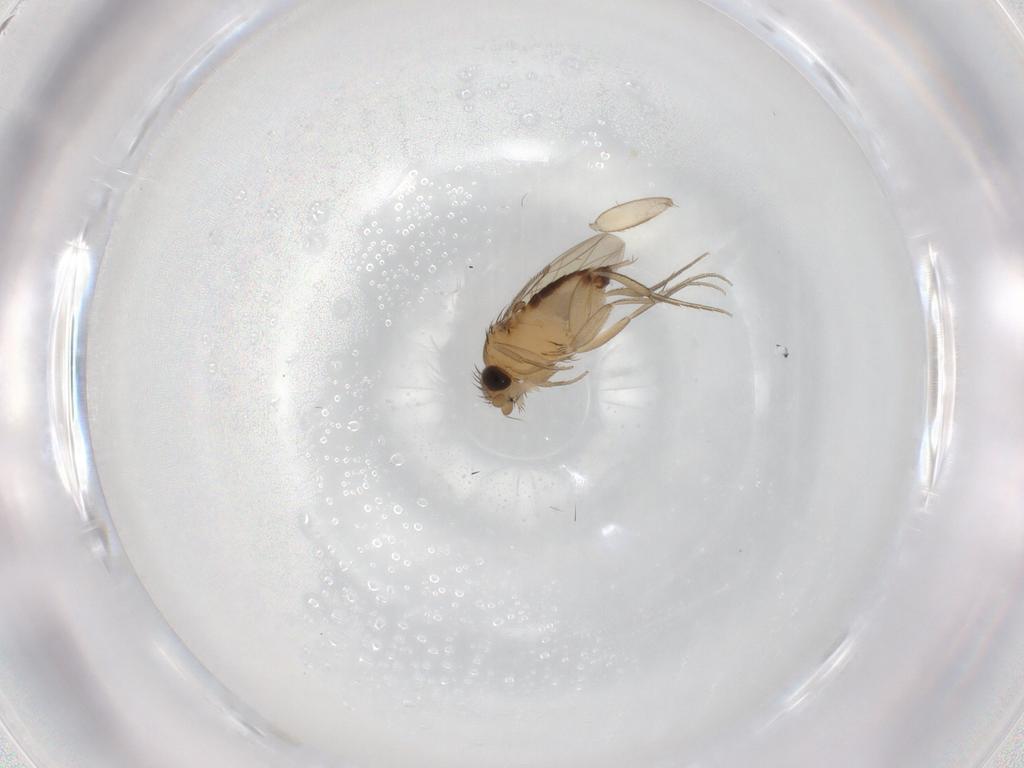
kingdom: Animalia
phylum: Arthropoda
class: Insecta
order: Diptera
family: Phoridae
